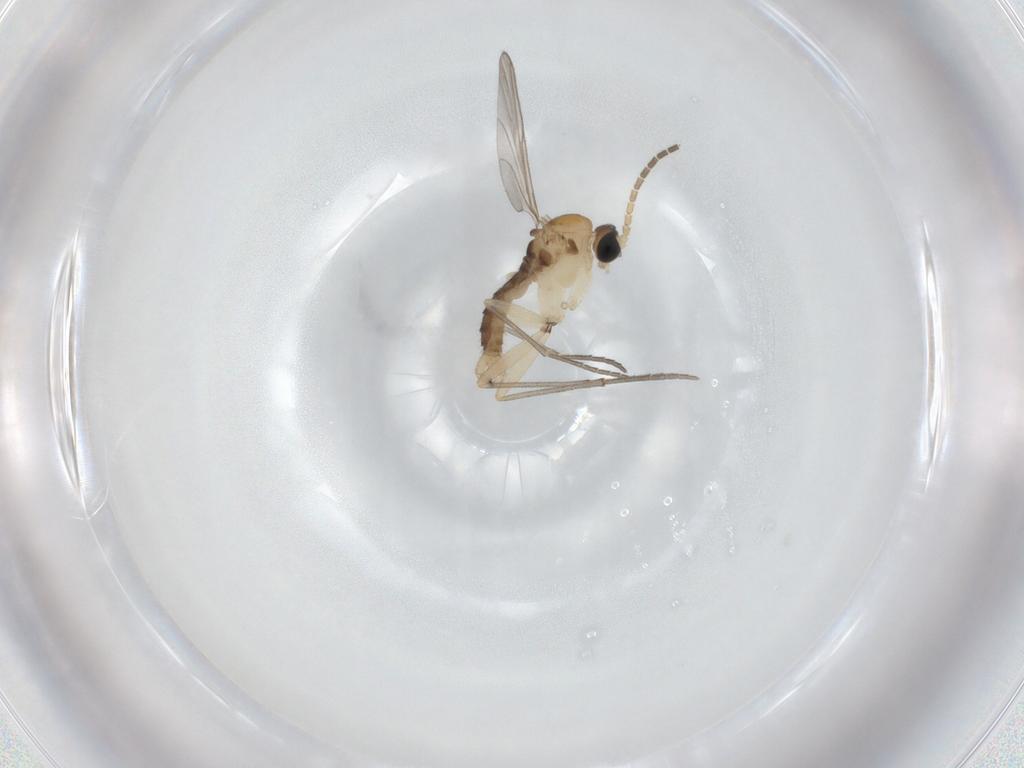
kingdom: Animalia
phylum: Arthropoda
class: Insecta
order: Diptera
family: Sciaridae
